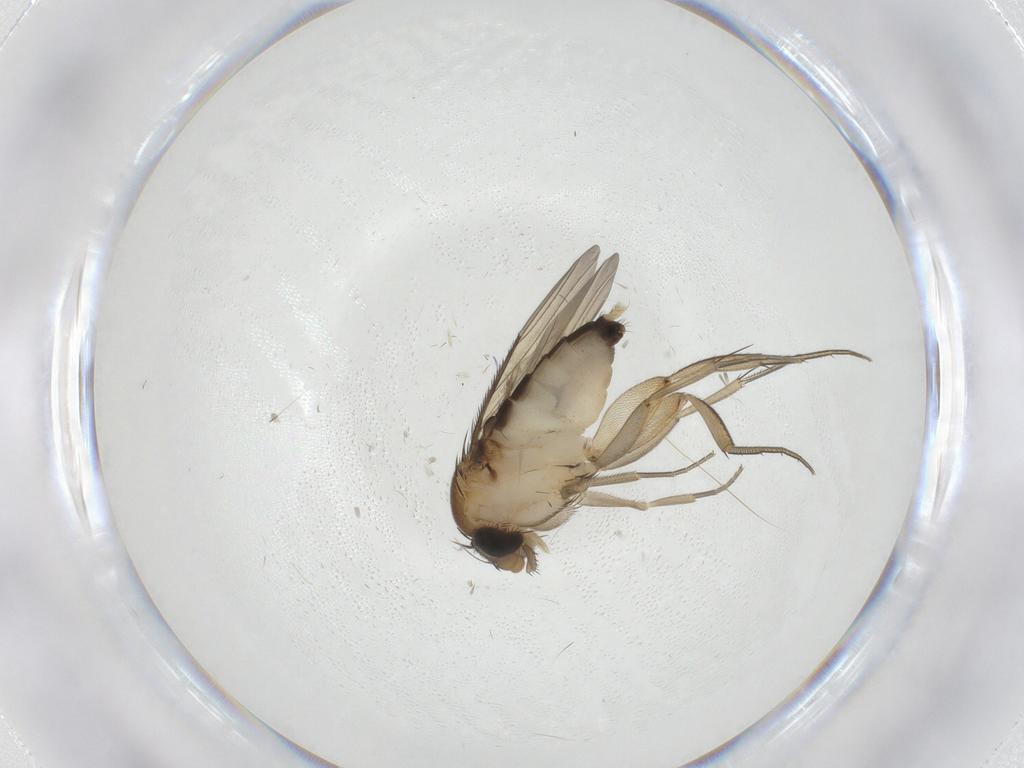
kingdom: Animalia
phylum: Arthropoda
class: Insecta
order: Diptera
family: Phoridae
